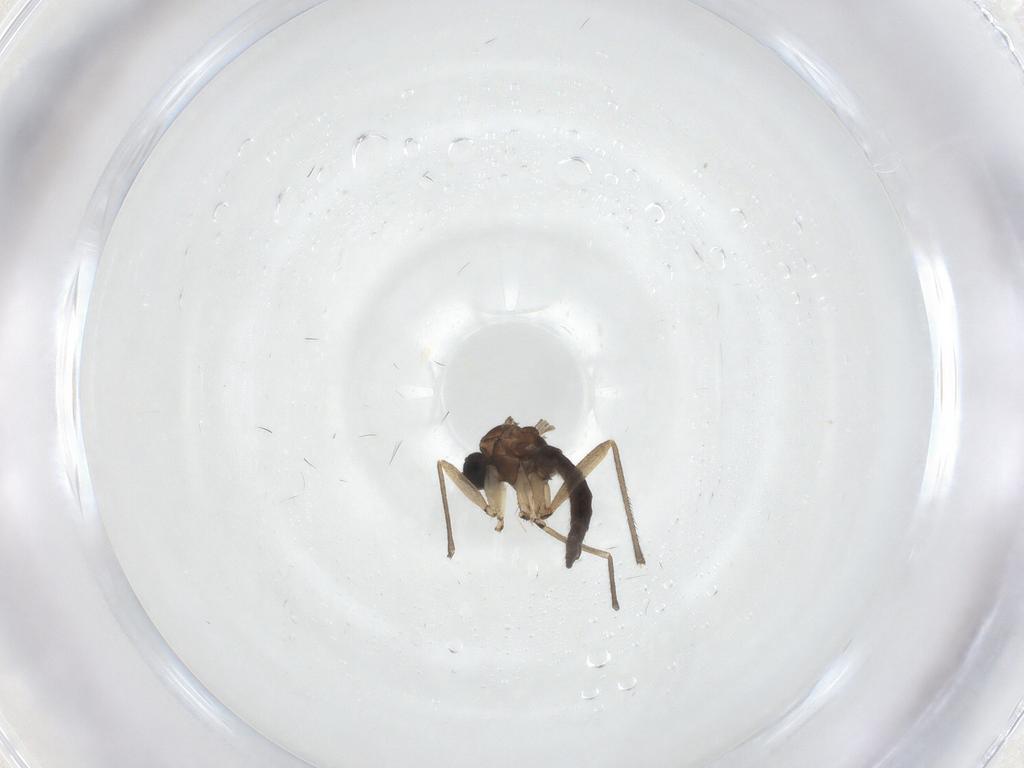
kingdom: Animalia
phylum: Arthropoda
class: Insecta
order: Diptera
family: Sciaridae
